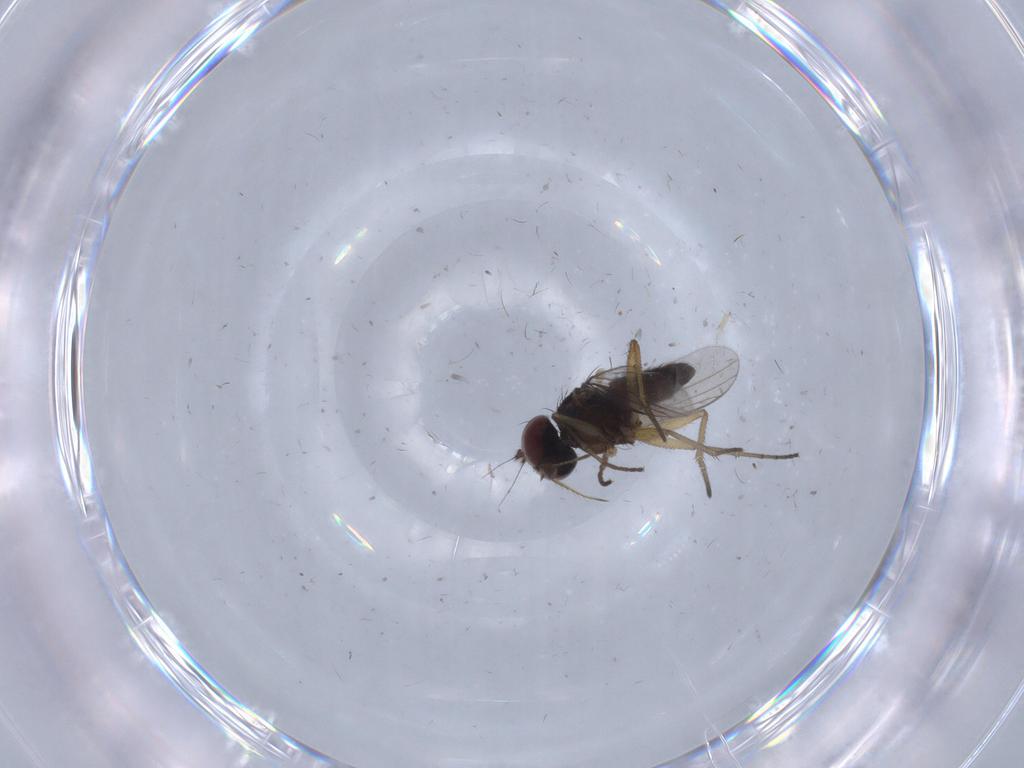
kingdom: Animalia
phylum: Arthropoda
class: Insecta
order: Diptera
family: Dolichopodidae
